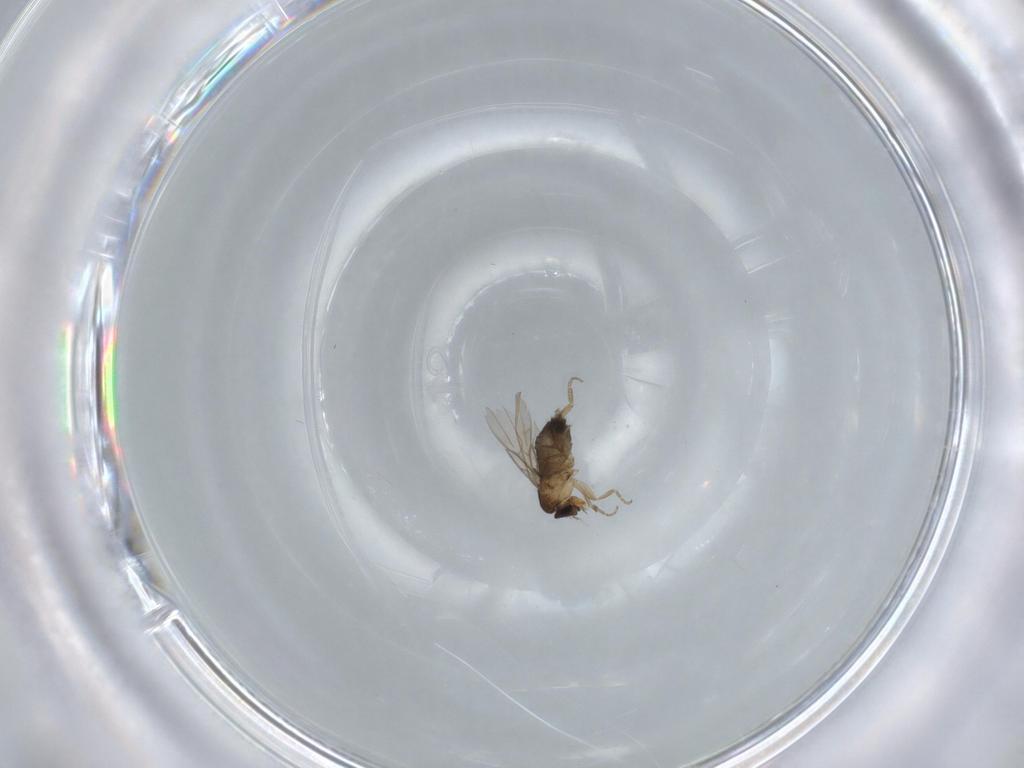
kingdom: Animalia
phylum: Arthropoda
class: Insecta
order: Diptera
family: Phoridae
